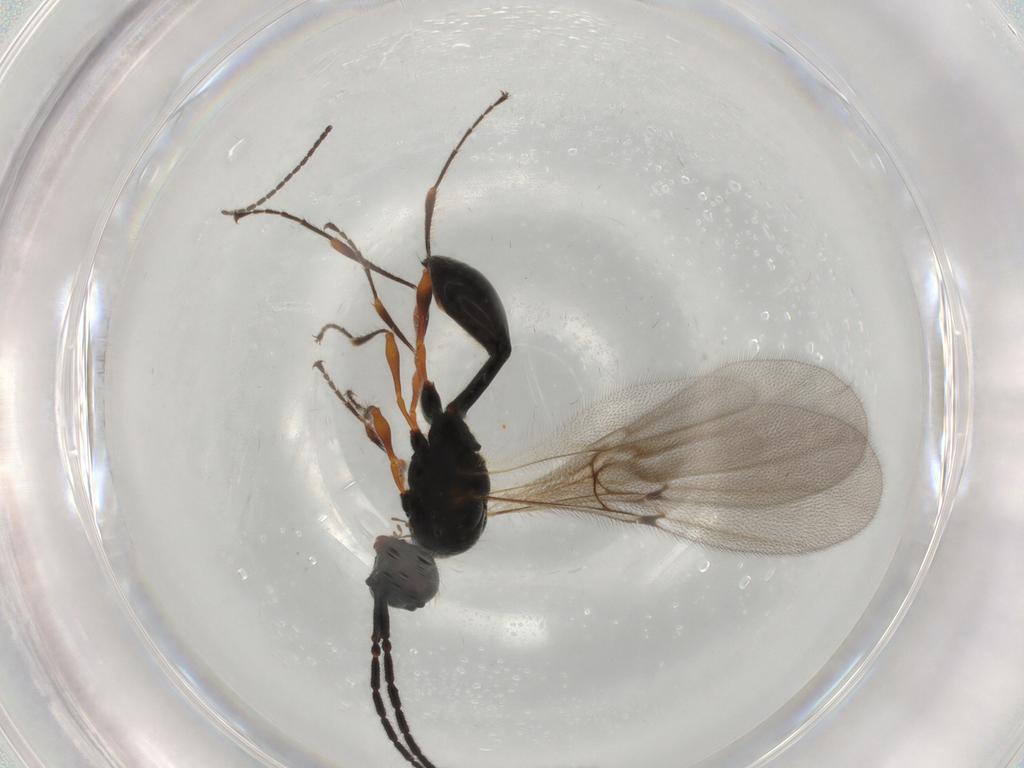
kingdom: Animalia
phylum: Arthropoda
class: Insecta
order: Hymenoptera
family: Diapriidae
